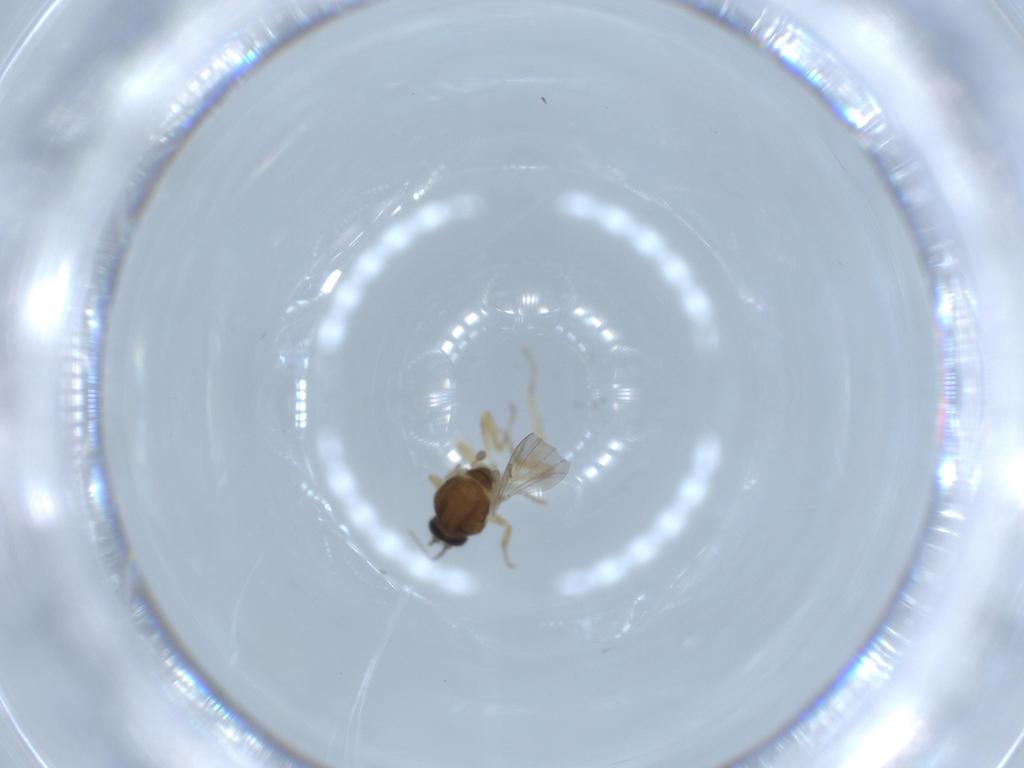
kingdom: Animalia
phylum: Arthropoda
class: Insecta
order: Diptera
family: Ceratopogonidae
